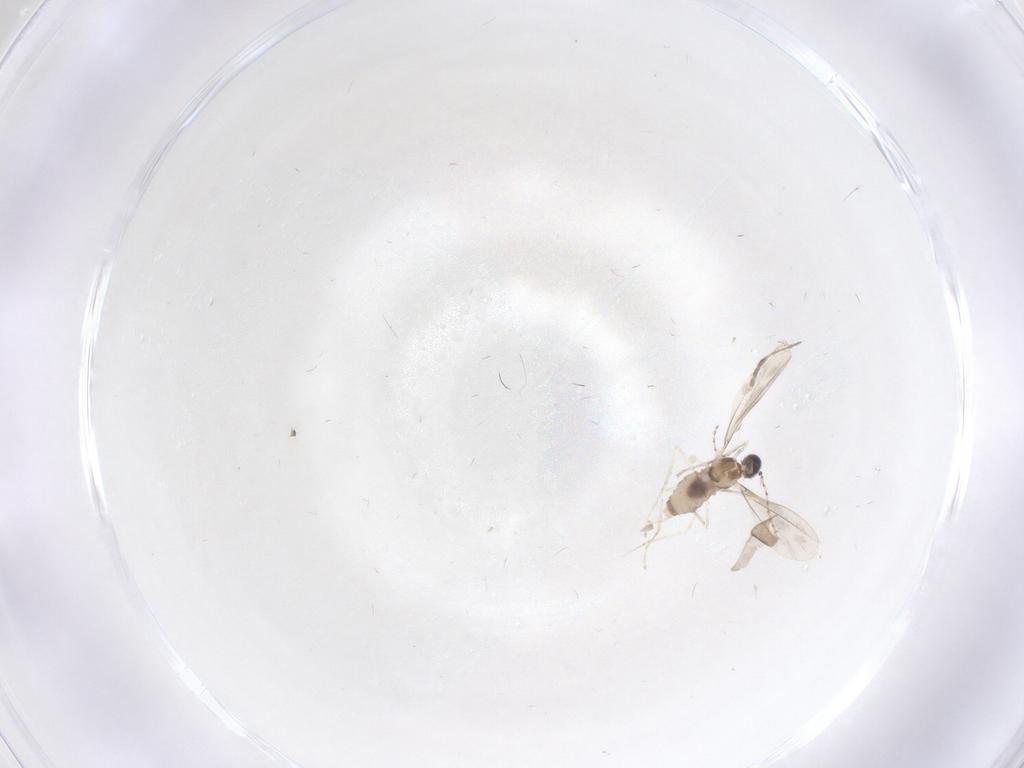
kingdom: Animalia
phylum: Arthropoda
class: Insecta
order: Diptera
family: Cecidomyiidae
